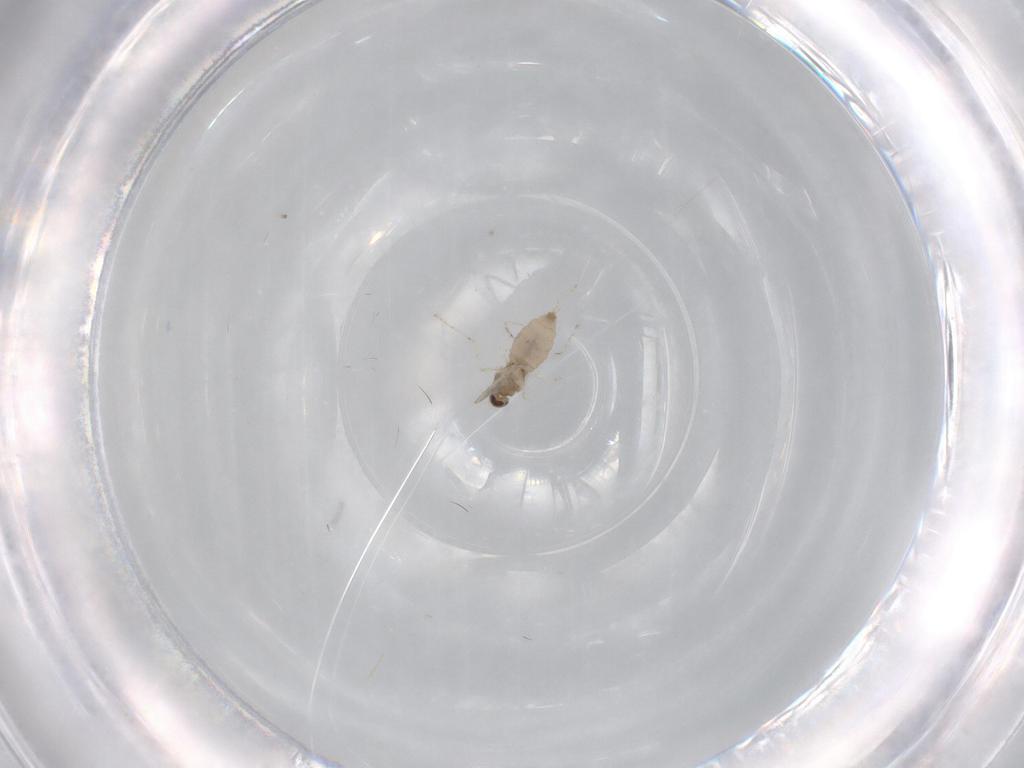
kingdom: Animalia
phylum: Arthropoda
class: Insecta
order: Diptera
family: Cecidomyiidae
